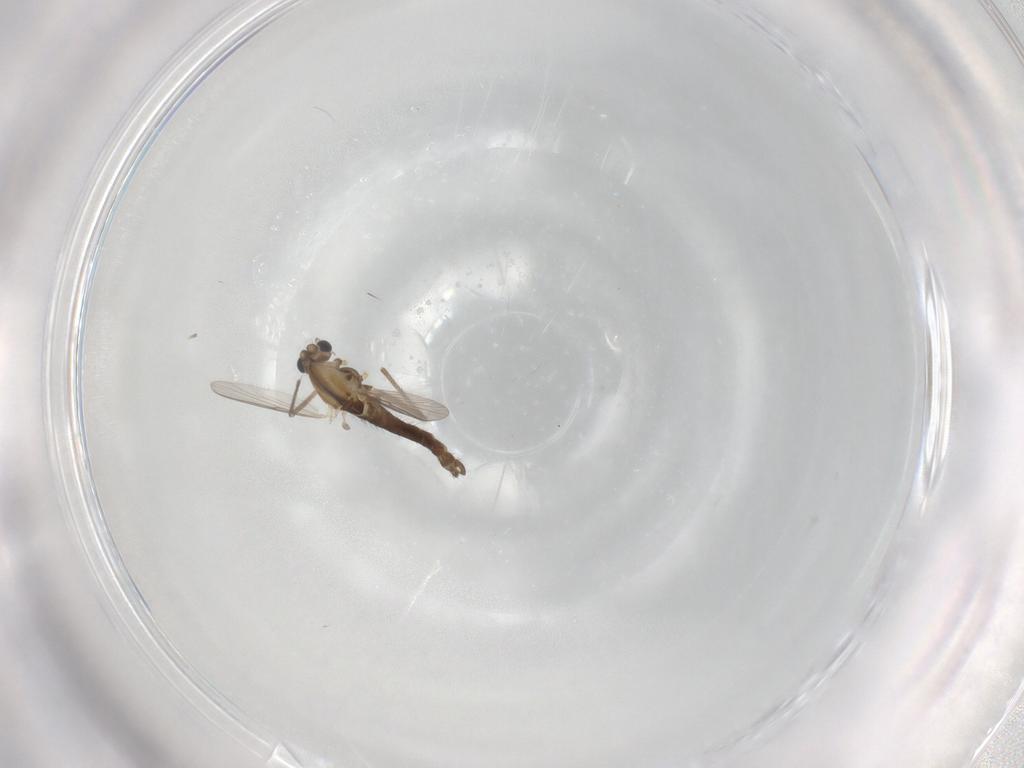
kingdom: Animalia
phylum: Arthropoda
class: Insecta
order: Diptera
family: Chironomidae
